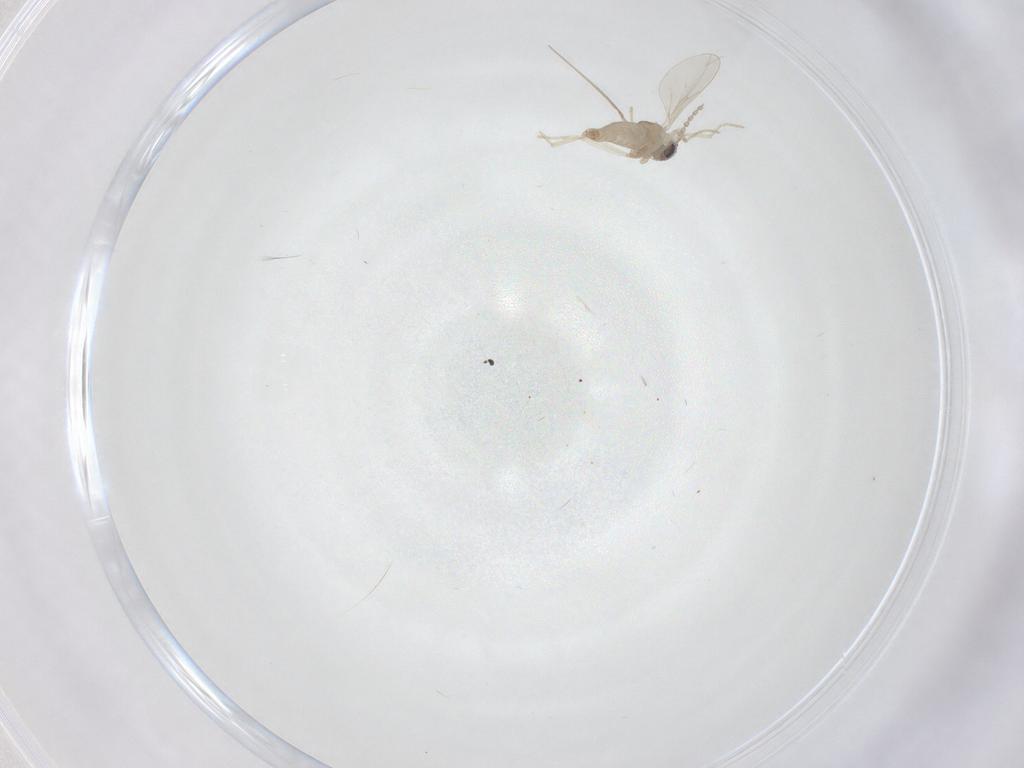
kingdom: Animalia
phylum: Arthropoda
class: Insecta
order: Diptera
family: Cecidomyiidae
